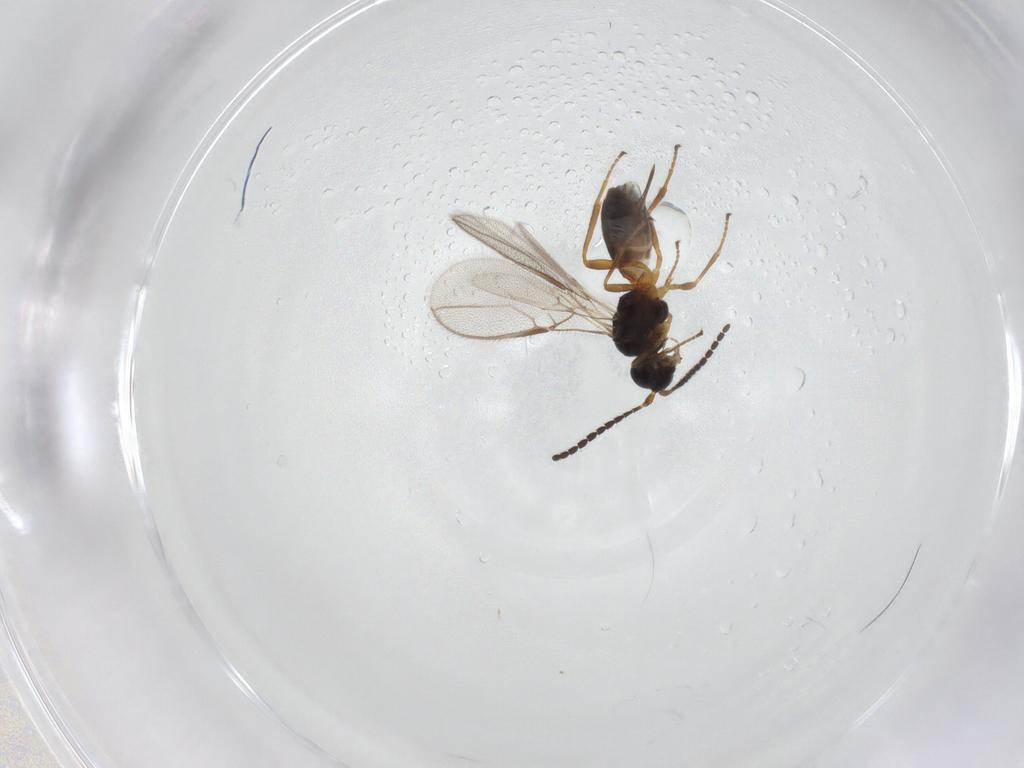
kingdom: Animalia
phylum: Arthropoda
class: Insecta
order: Hymenoptera
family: Braconidae
